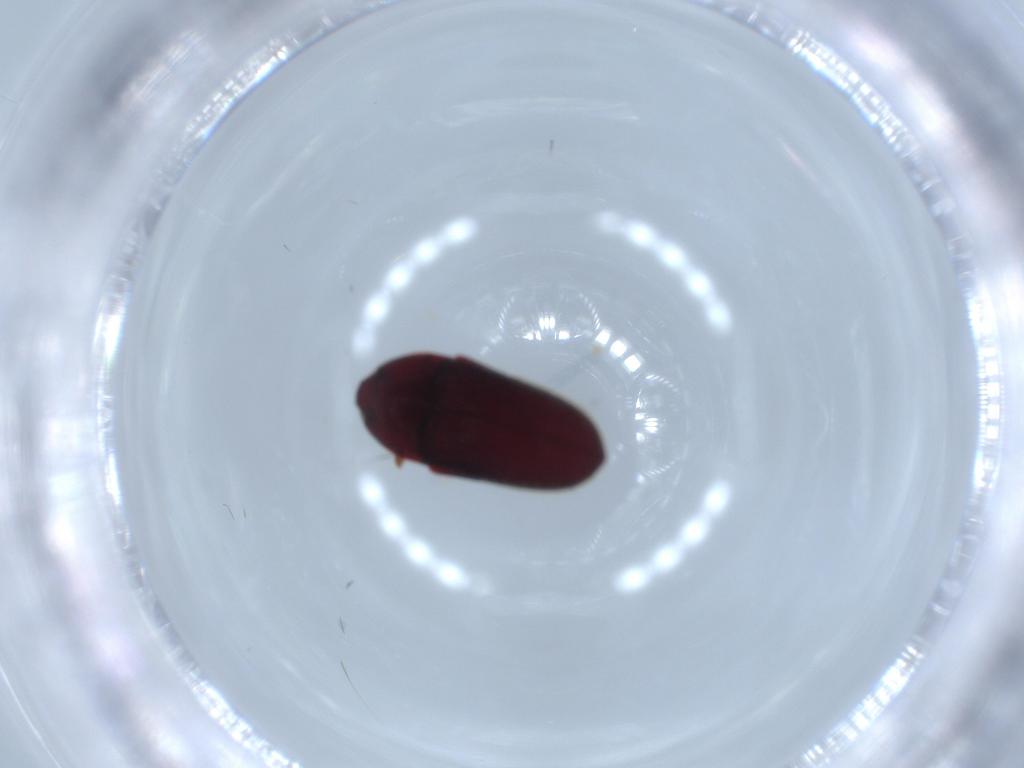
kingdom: Animalia
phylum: Arthropoda
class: Insecta
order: Coleoptera
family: Throscidae
